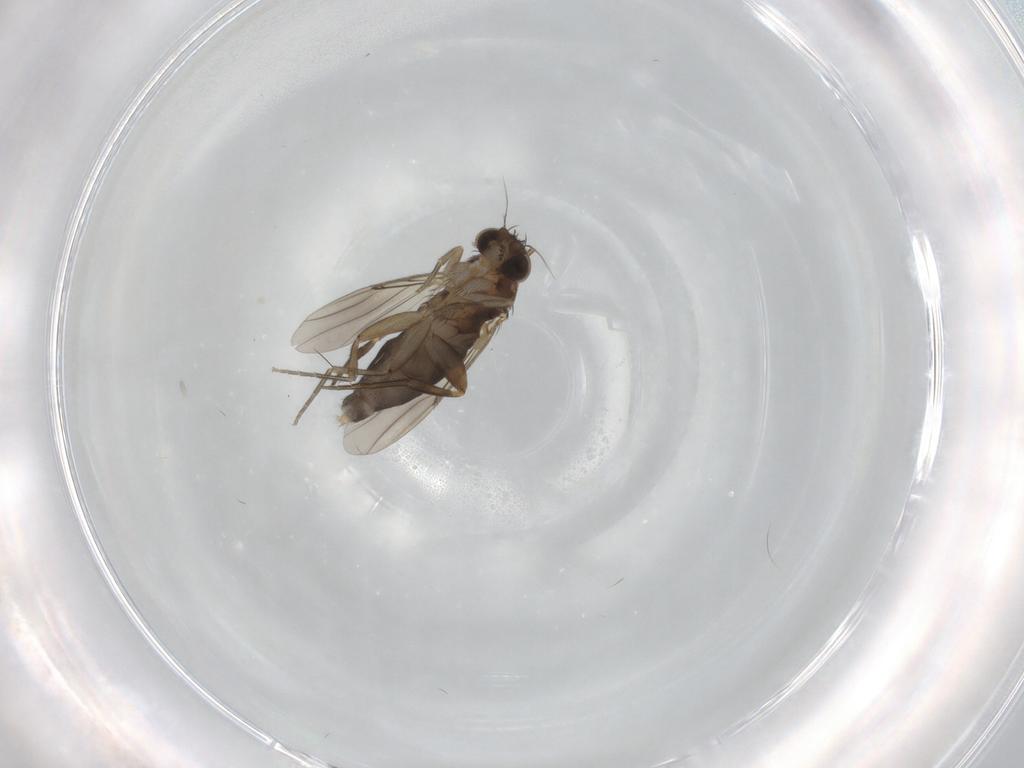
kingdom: Animalia
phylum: Arthropoda
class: Insecta
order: Diptera
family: Phoridae
